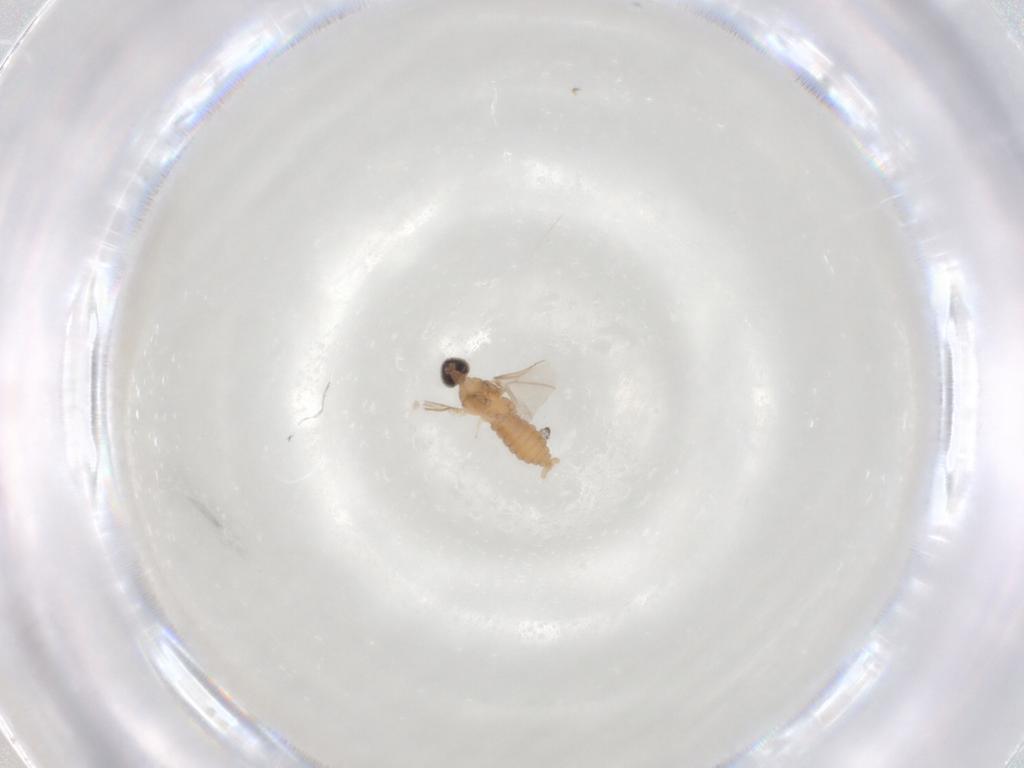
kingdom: Animalia
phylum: Arthropoda
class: Insecta
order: Diptera
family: Cecidomyiidae
